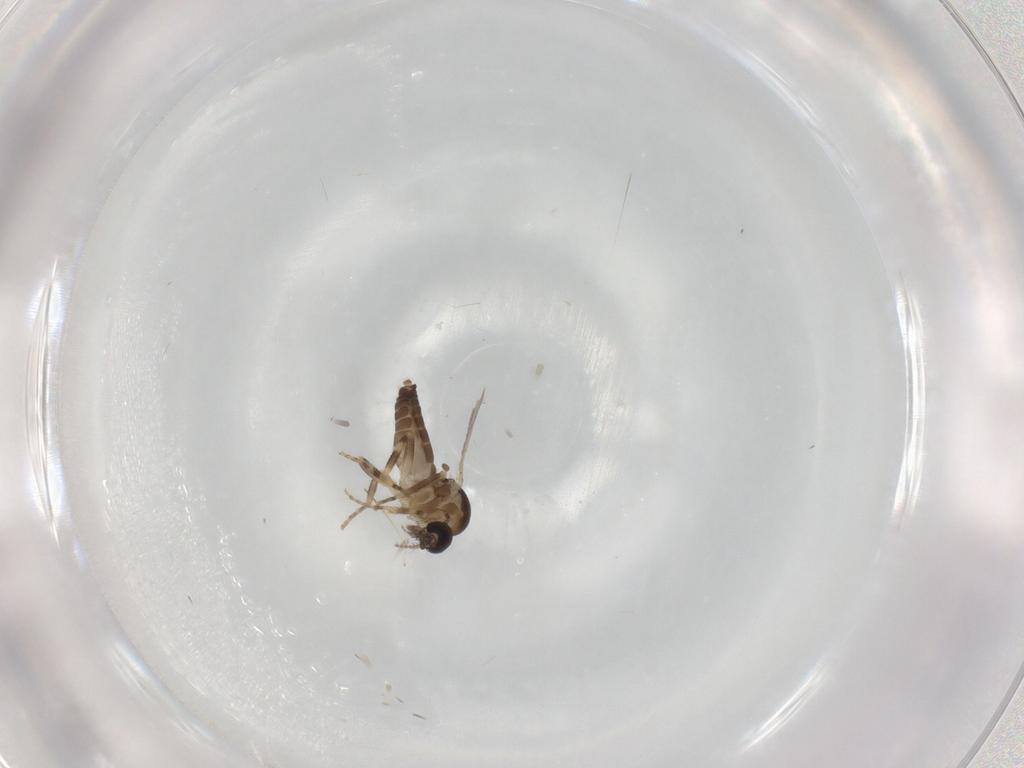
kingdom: Animalia
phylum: Arthropoda
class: Insecta
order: Diptera
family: Ceratopogonidae
